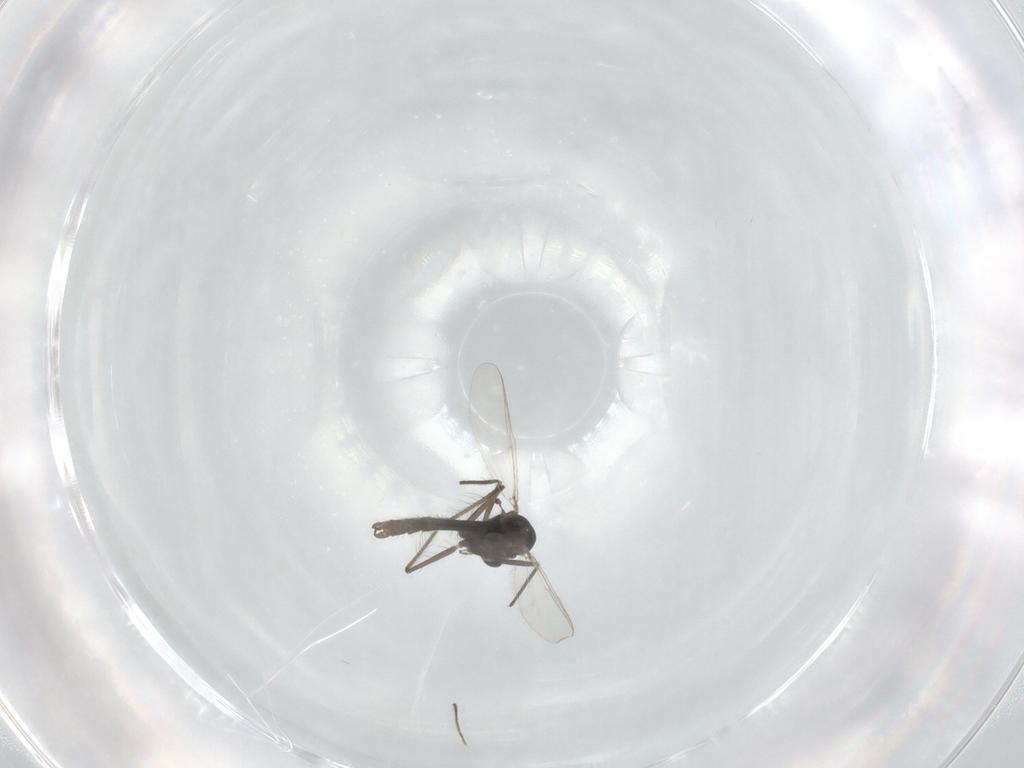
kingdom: Animalia
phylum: Arthropoda
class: Insecta
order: Diptera
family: Chironomidae
